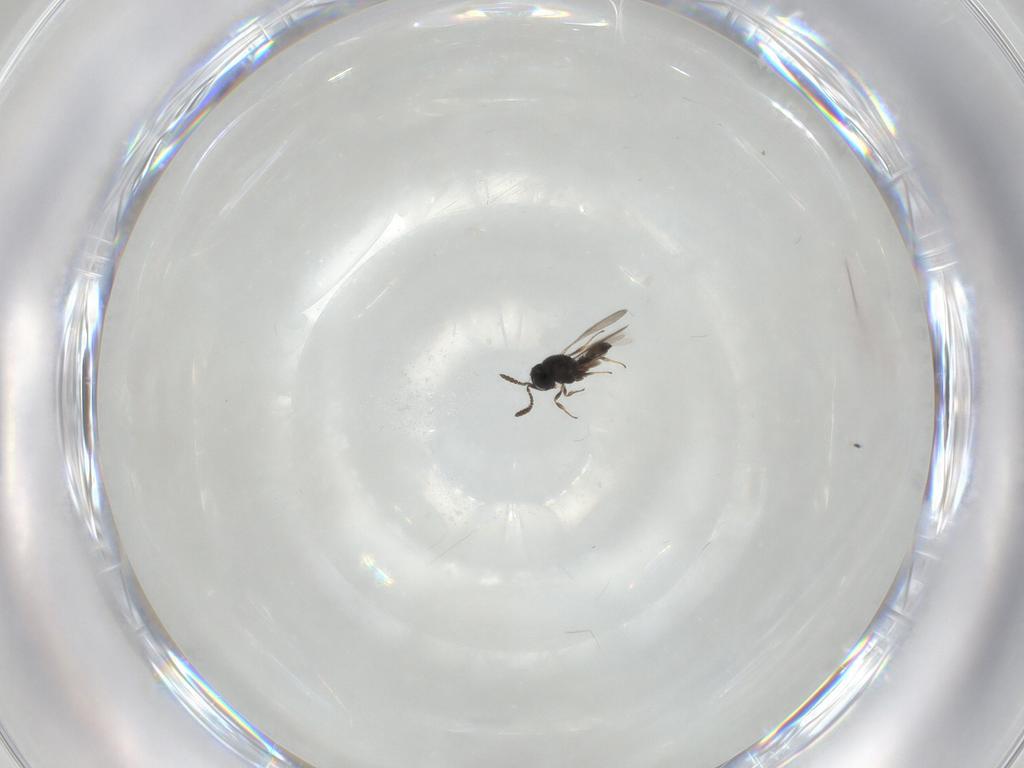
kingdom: Animalia
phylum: Arthropoda
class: Insecta
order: Hymenoptera
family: Scelionidae
